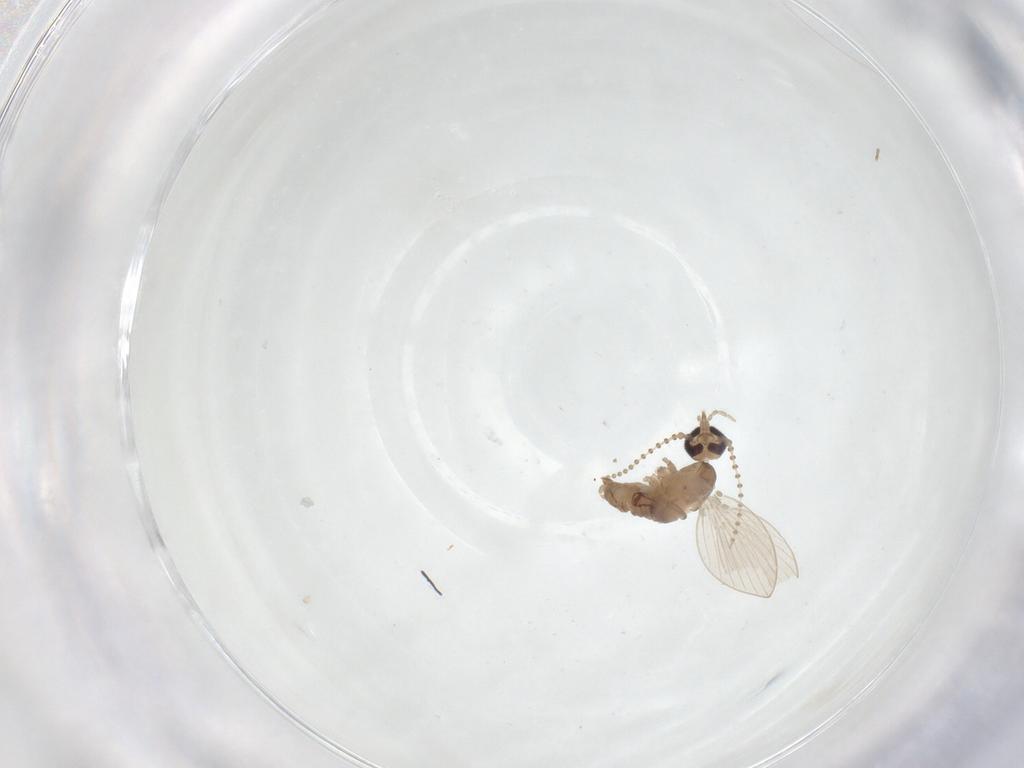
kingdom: Animalia
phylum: Arthropoda
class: Insecta
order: Diptera
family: Psychodidae
